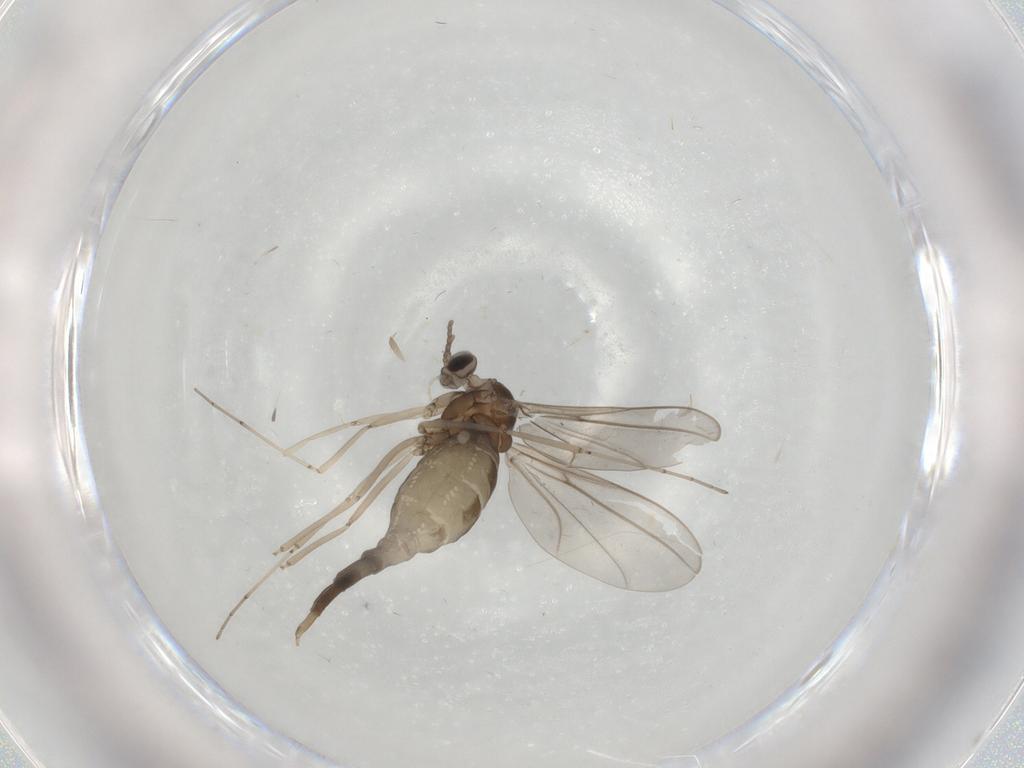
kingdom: Animalia
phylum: Arthropoda
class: Insecta
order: Diptera
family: Cecidomyiidae
